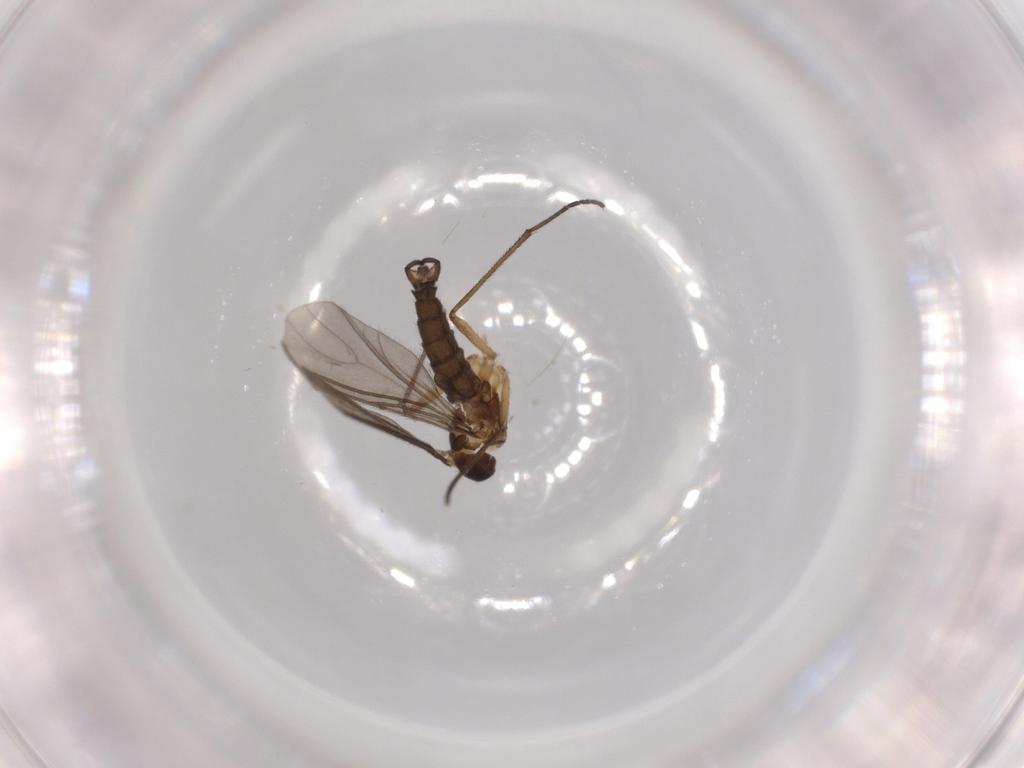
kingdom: Animalia
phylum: Arthropoda
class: Insecta
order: Diptera
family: Sciaridae
